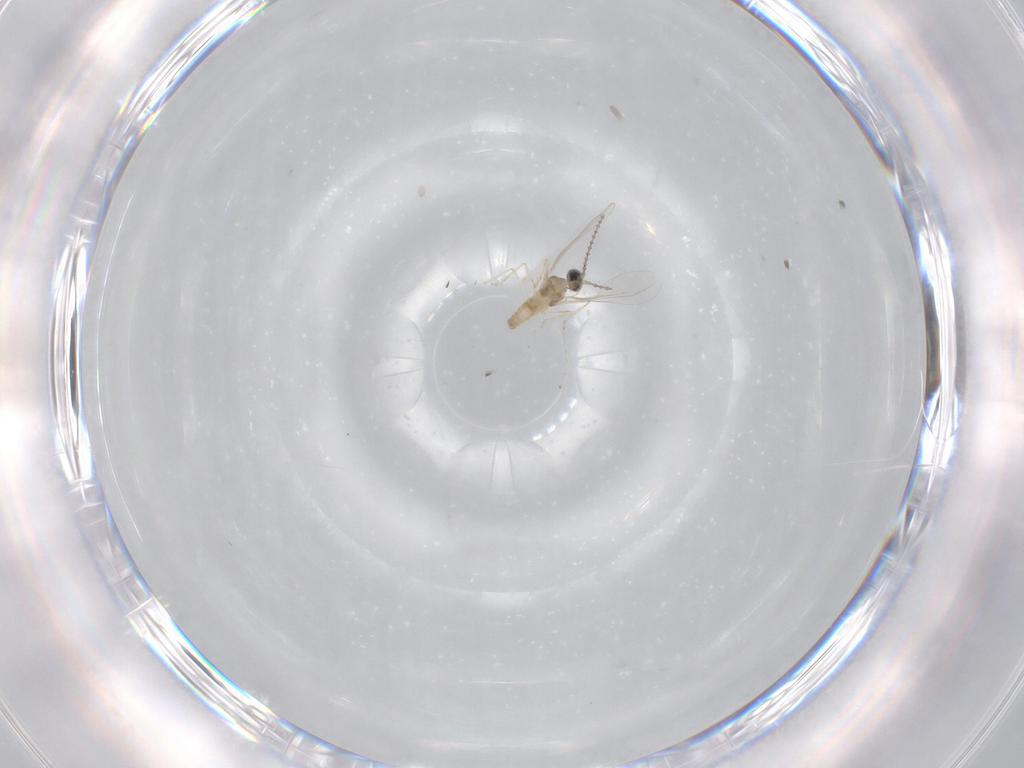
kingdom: Animalia
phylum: Arthropoda
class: Insecta
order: Diptera
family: Cecidomyiidae
